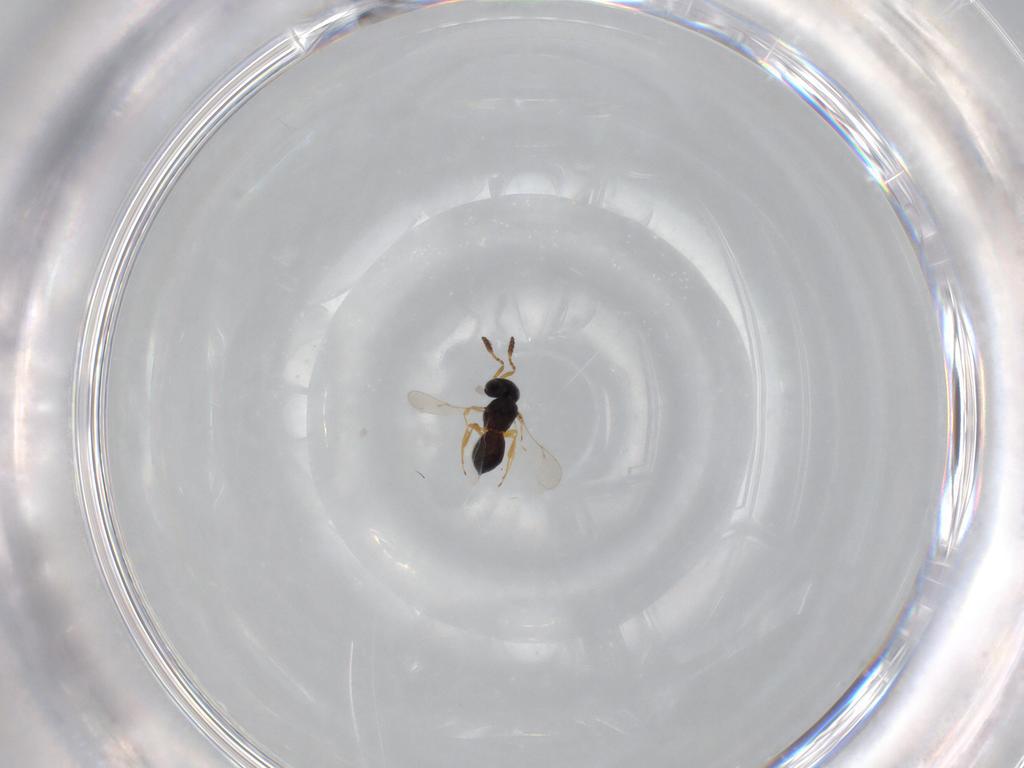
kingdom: Animalia
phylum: Arthropoda
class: Insecta
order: Hymenoptera
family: Scelionidae
